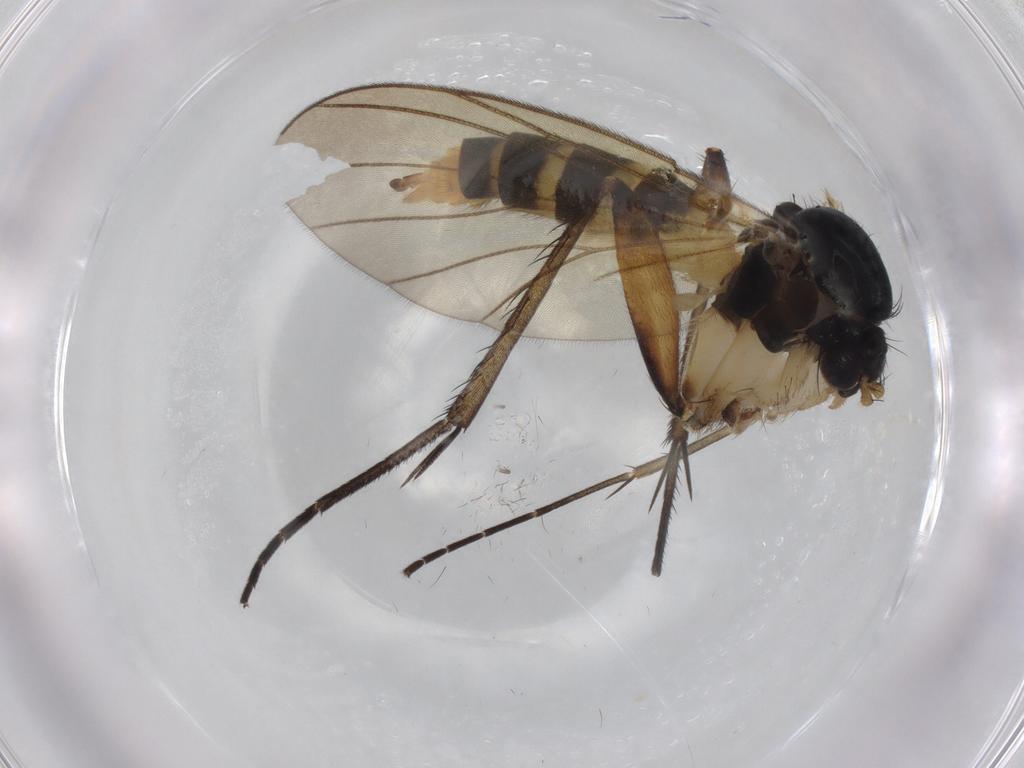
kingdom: Animalia
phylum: Arthropoda
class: Insecta
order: Diptera
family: Mycetophilidae
